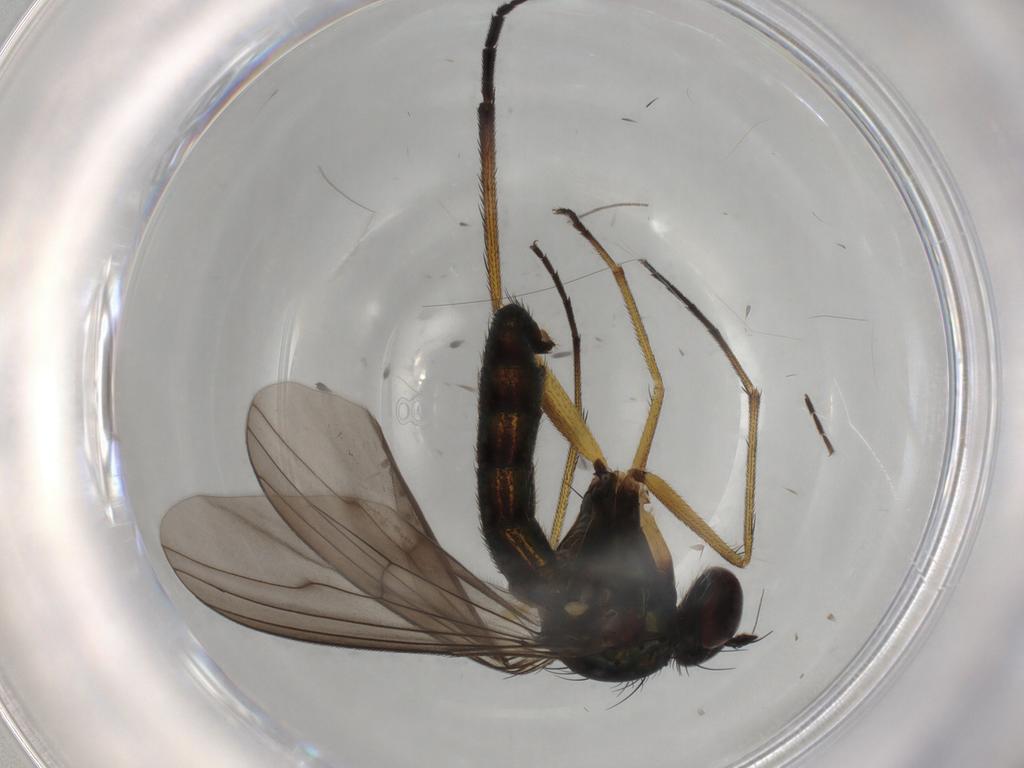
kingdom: Animalia
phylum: Arthropoda
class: Insecta
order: Diptera
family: Dolichopodidae
